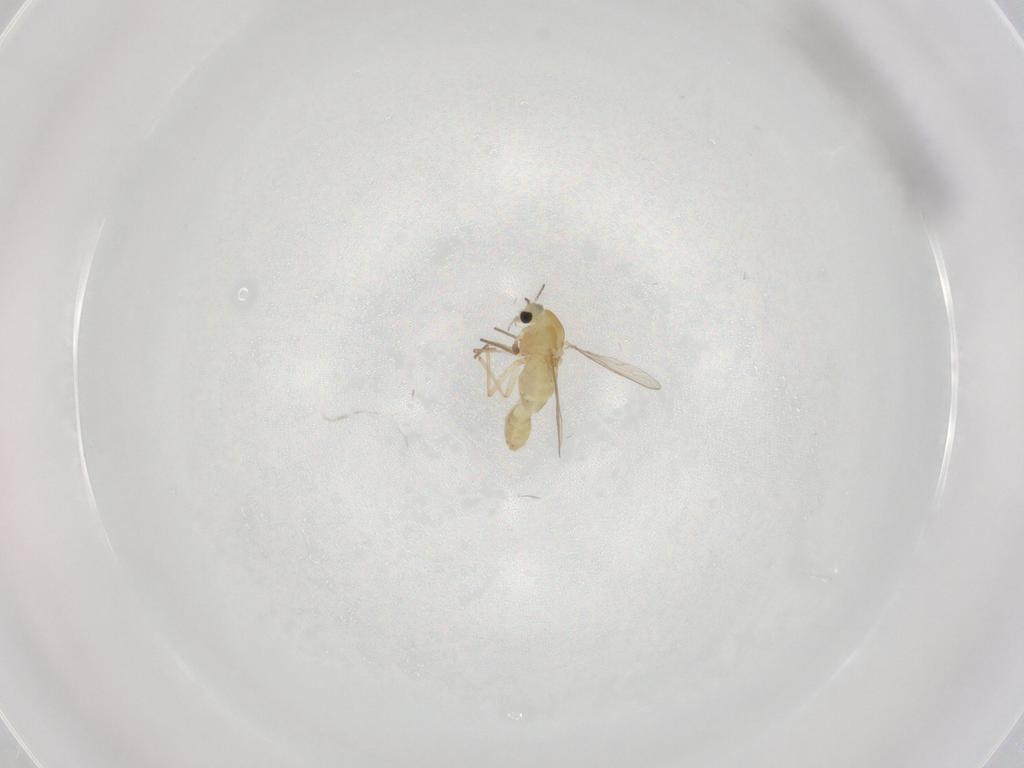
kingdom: Animalia
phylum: Arthropoda
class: Insecta
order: Diptera
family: Chironomidae
